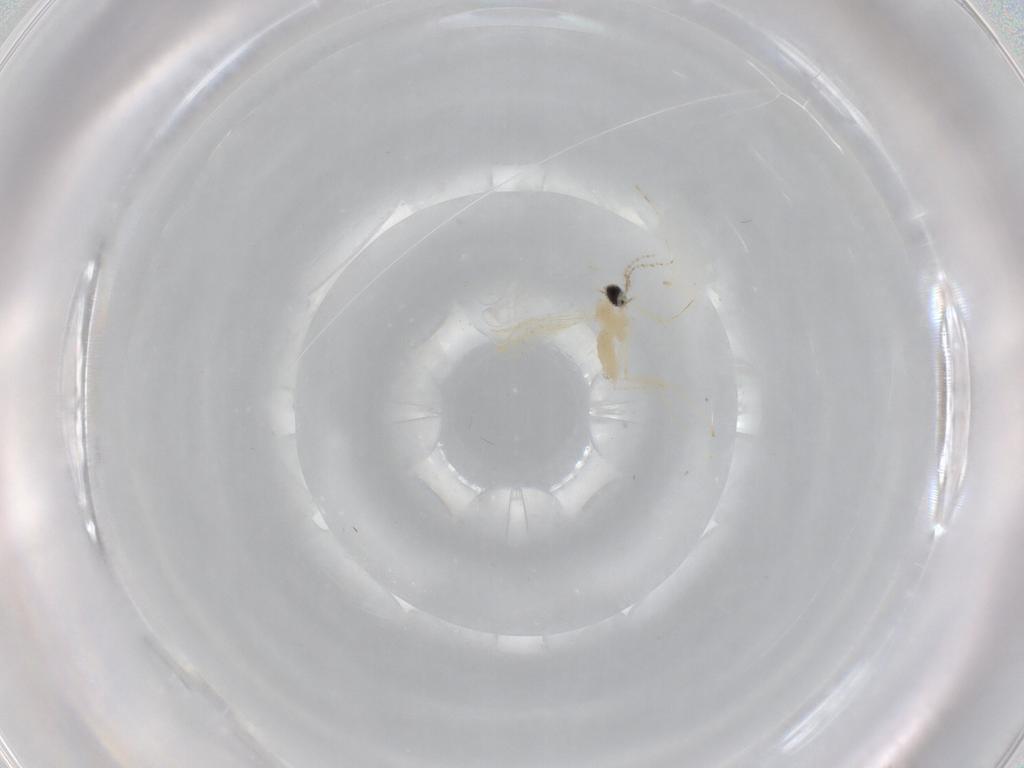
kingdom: Animalia
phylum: Arthropoda
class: Insecta
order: Diptera
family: Cecidomyiidae
